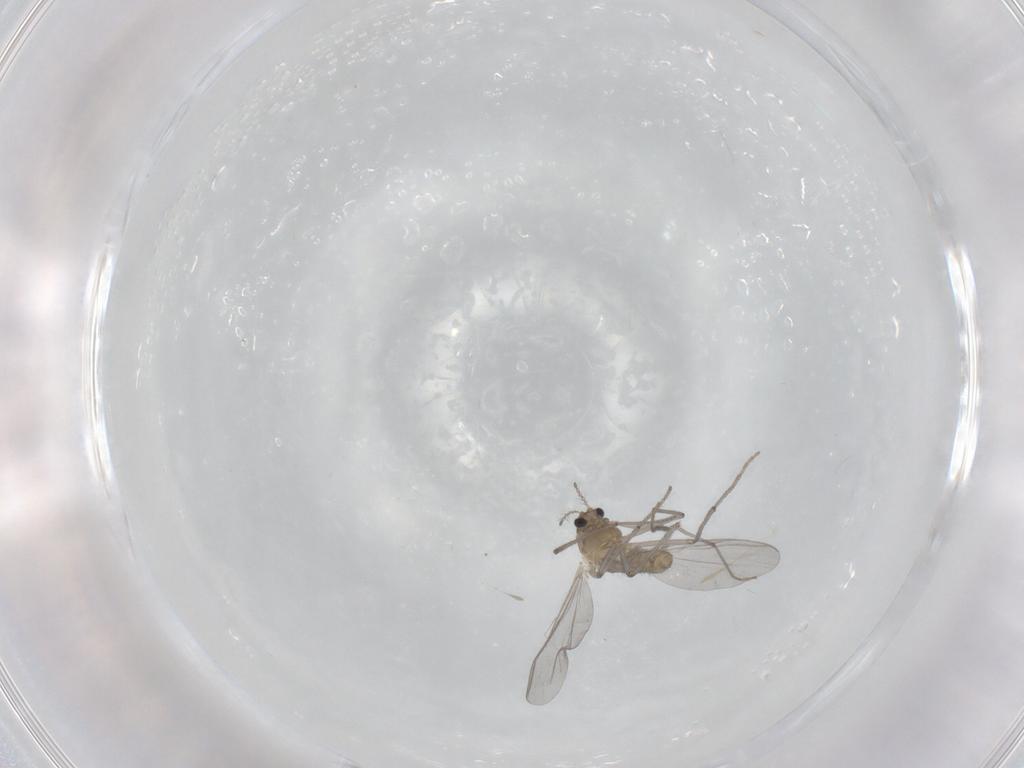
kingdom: Animalia
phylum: Arthropoda
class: Insecta
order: Diptera
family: Chironomidae
